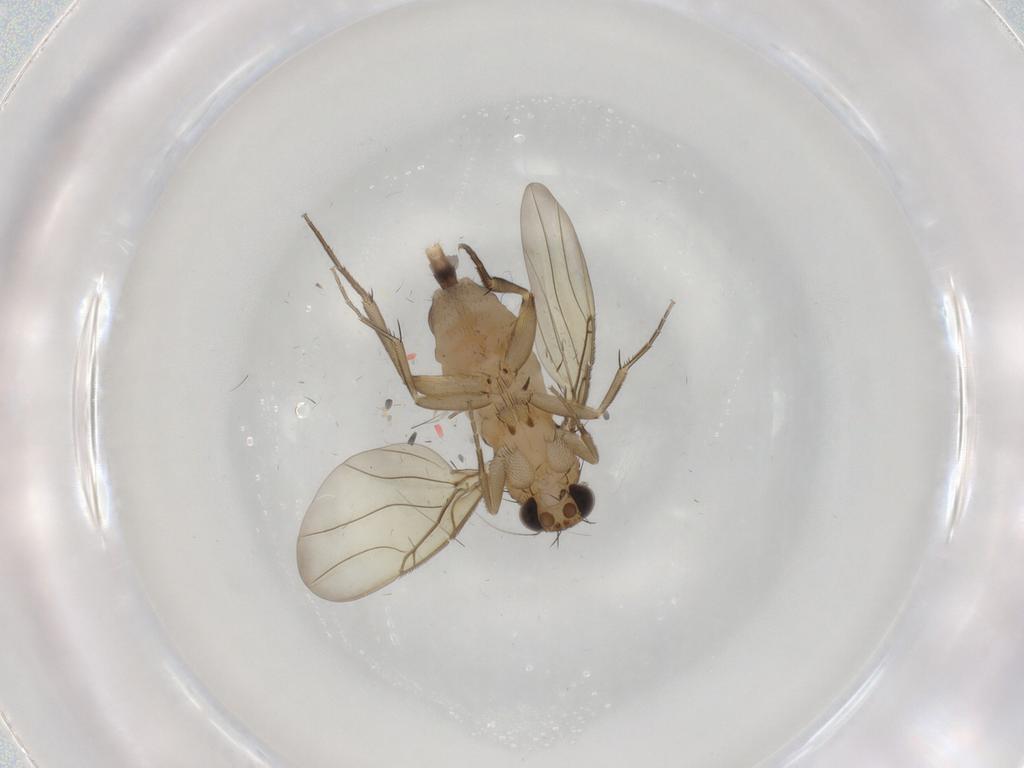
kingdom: Animalia
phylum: Arthropoda
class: Insecta
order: Diptera
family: Phoridae
